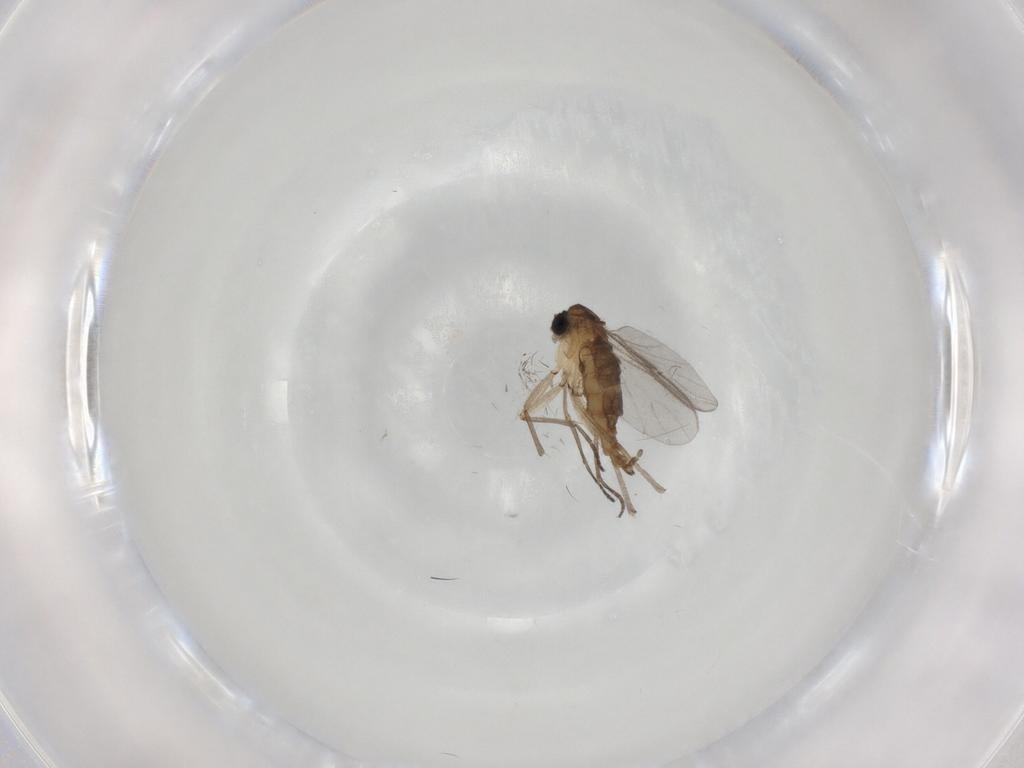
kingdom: Animalia
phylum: Arthropoda
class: Insecta
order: Diptera
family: Sciaridae
